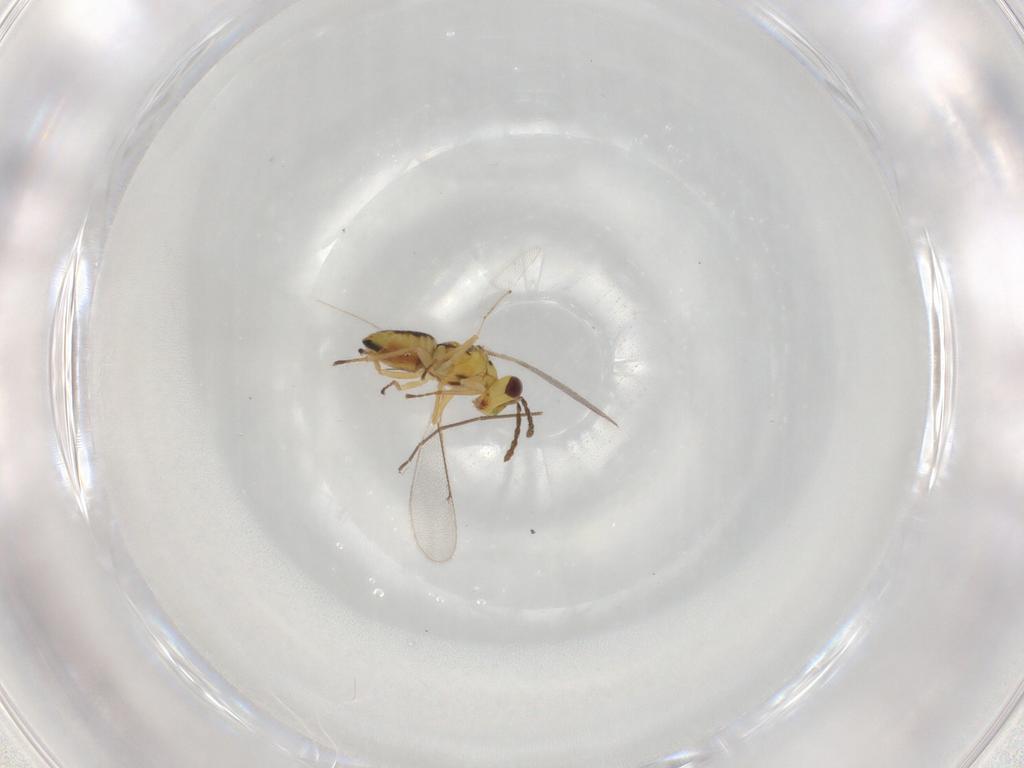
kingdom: Animalia
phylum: Arthropoda
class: Insecta
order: Hymenoptera
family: Eulophidae
